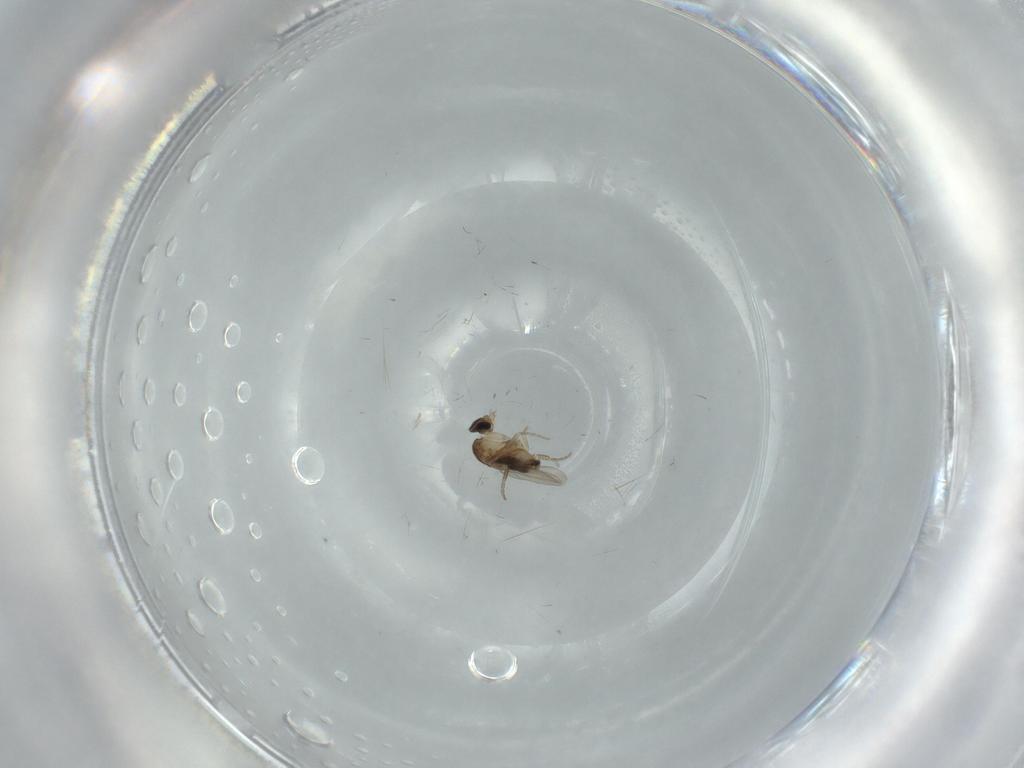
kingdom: Animalia
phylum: Arthropoda
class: Insecta
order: Diptera
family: Phoridae
